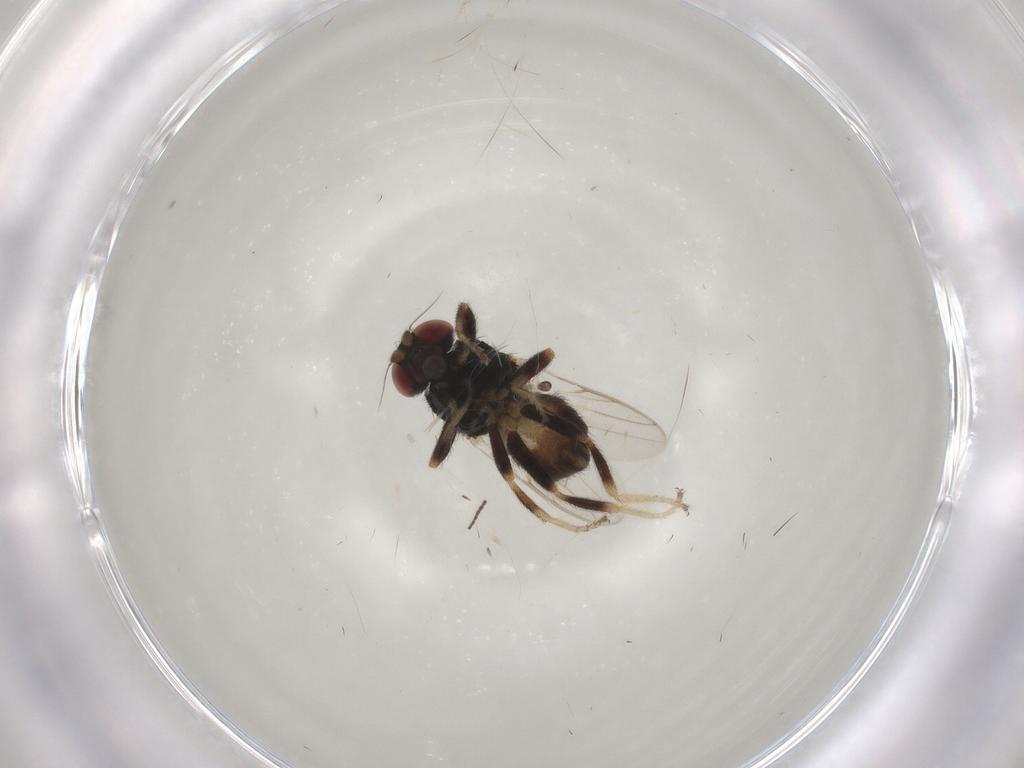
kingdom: Animalia
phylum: Arthropoda
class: Insecta
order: Diptera
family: Chloropidae
